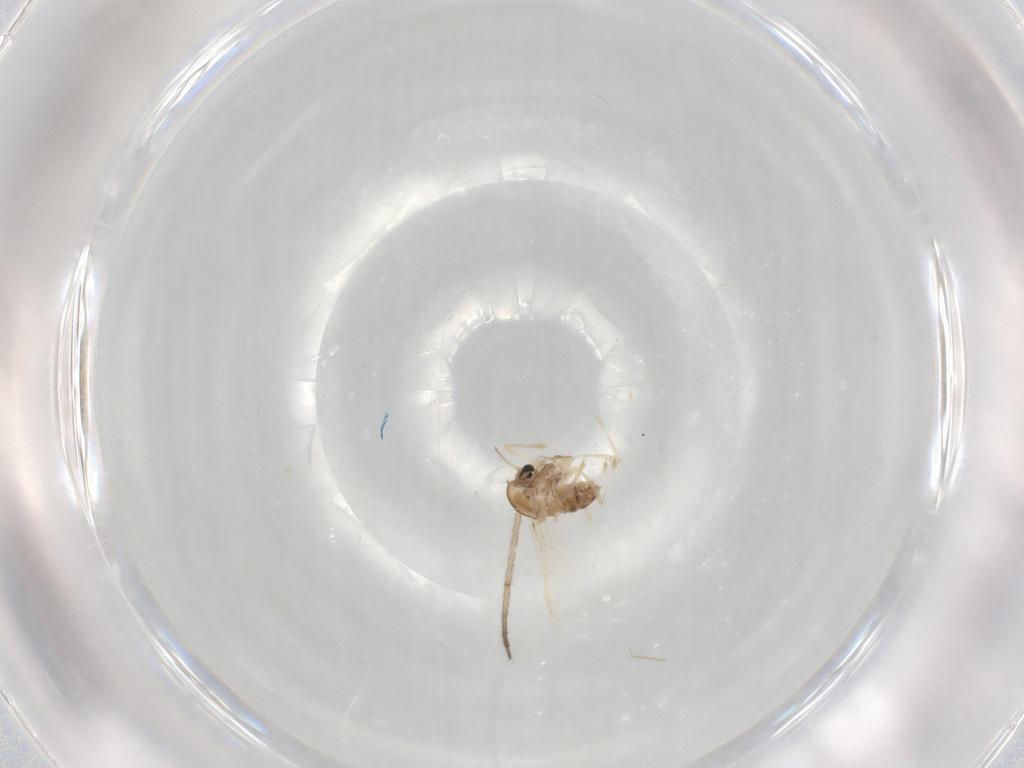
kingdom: Animalia
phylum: Arthropoda
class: Insecta
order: Diptera
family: Chironomidae
